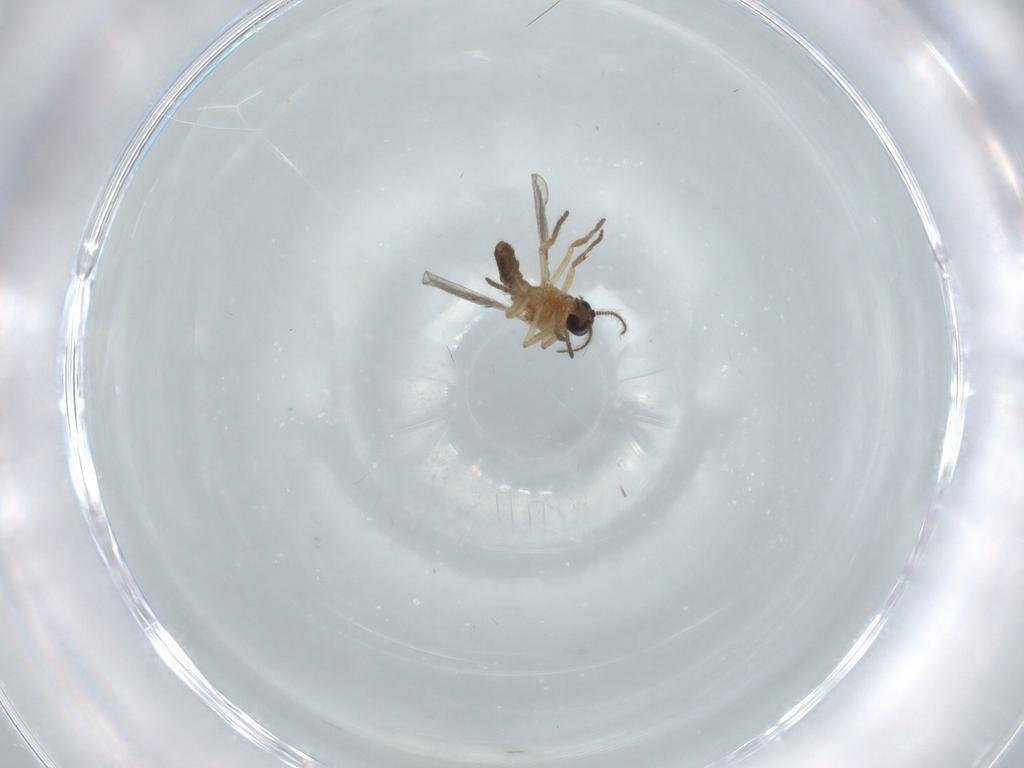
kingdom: Animalia
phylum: Arthropoda
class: Insecta
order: Diptera
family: Ceratopogonidae
